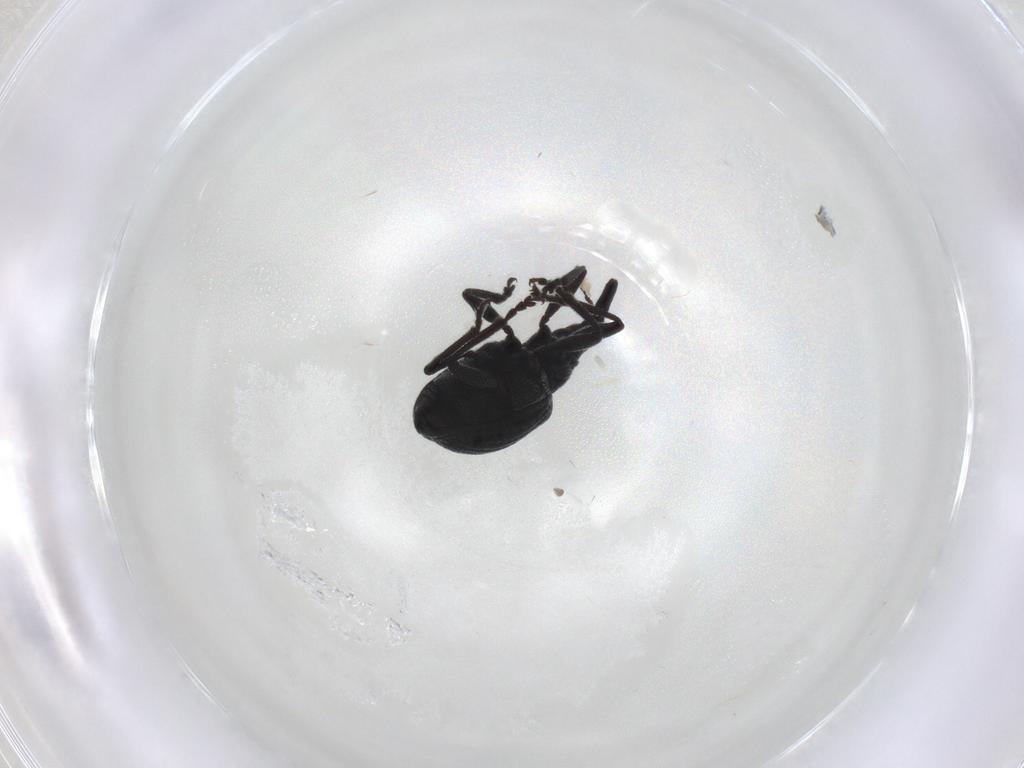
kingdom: Animalia
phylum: Arthropoda
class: Insecta
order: Coleoptera
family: Brentidae
